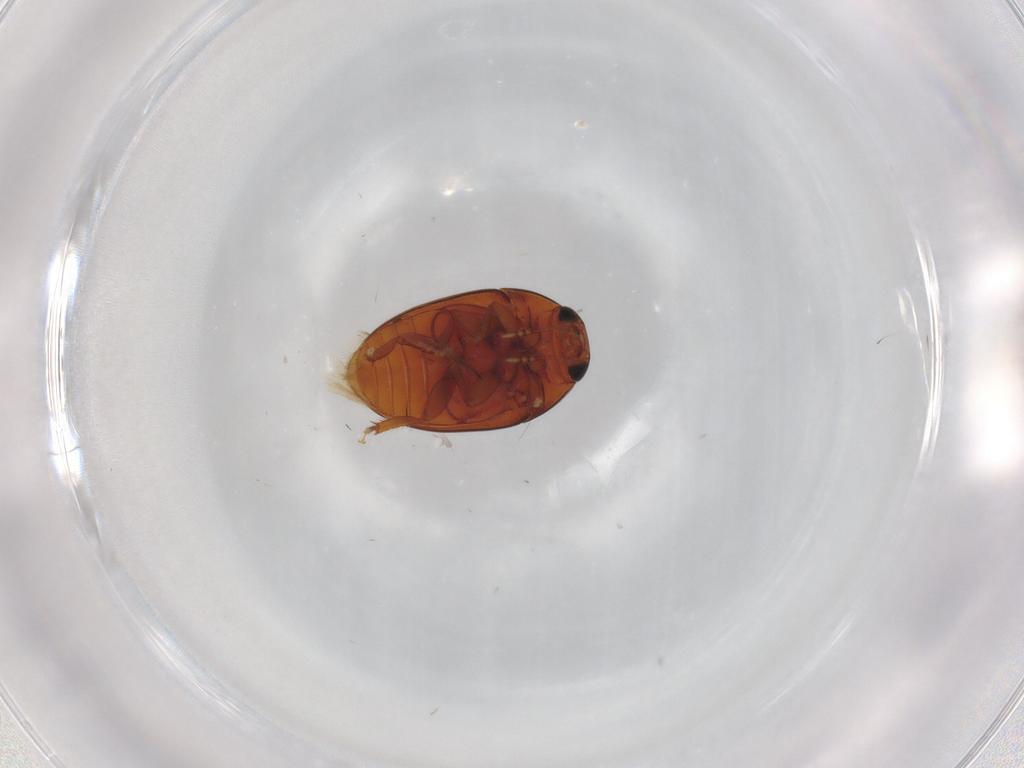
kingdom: Animalia
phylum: Arthropoda
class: Insecta
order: Coleoptera
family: Phalacridae
